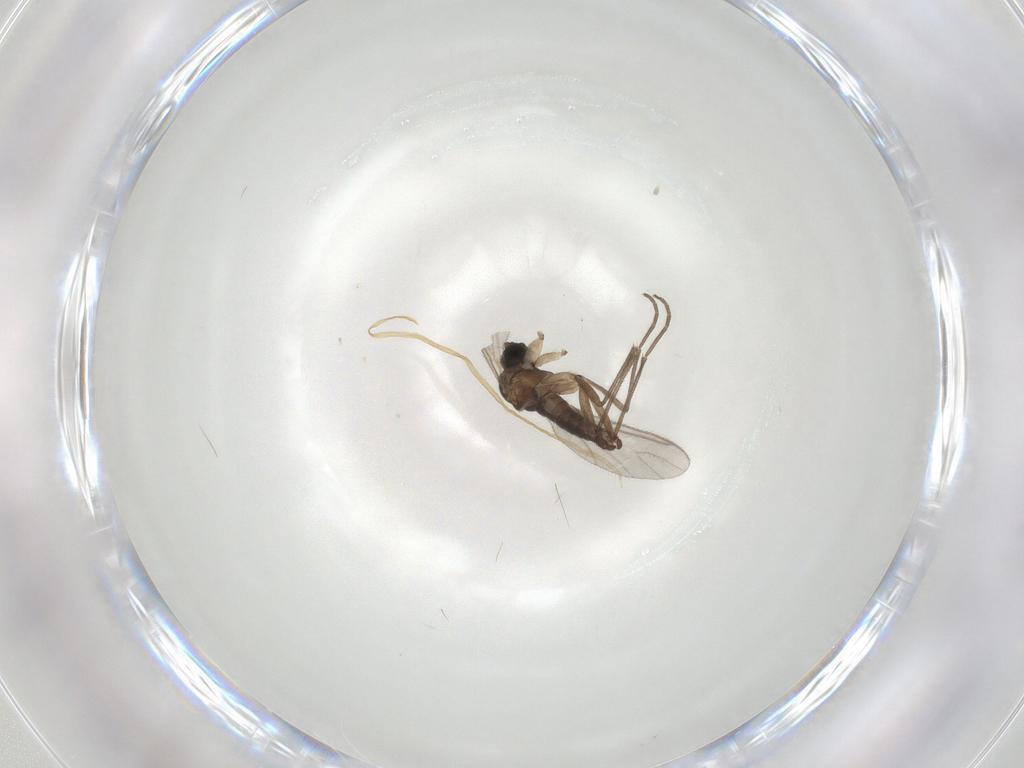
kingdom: Animalia
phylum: Arthropoda
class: Insecta
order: Diptera
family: Sciaridae
